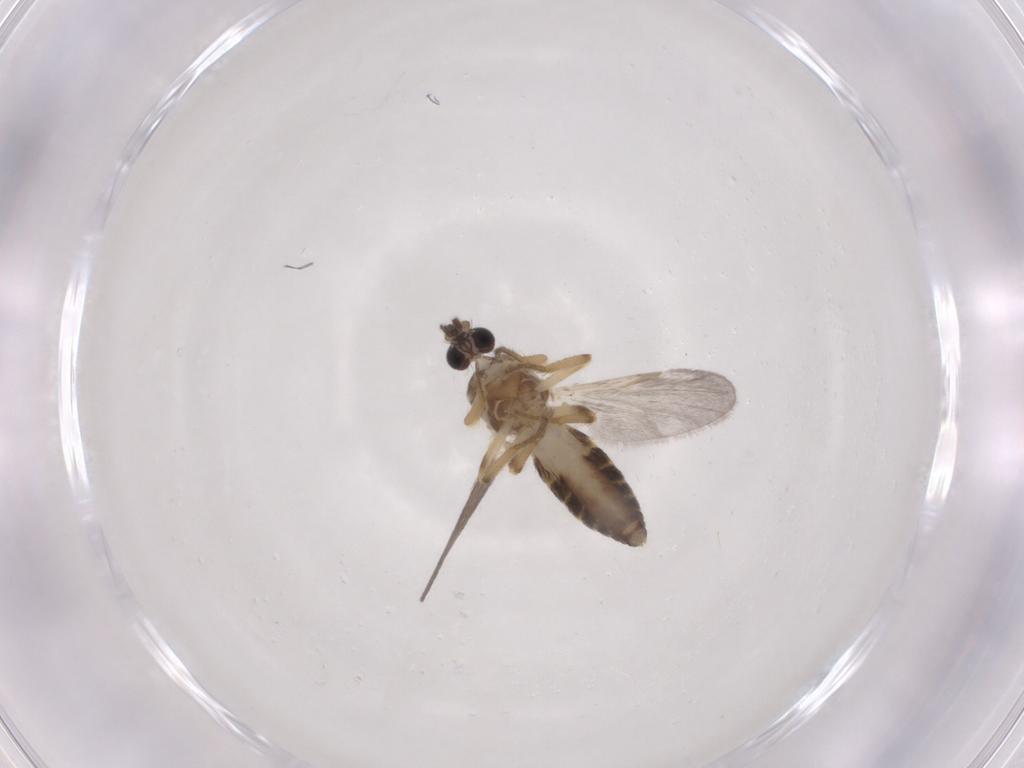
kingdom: Animalia
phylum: Arthropoda
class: Insecta
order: Diptera
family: Ceratopogonidae
